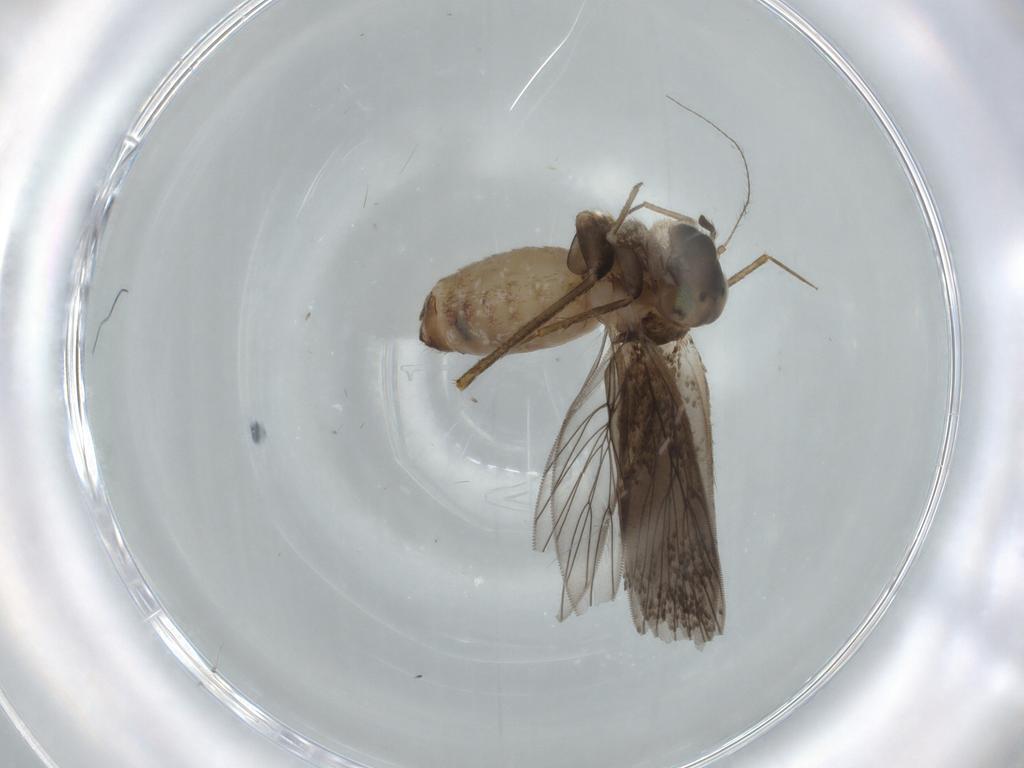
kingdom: Animalia
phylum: Arthropoda
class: Insecta
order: Psocodea
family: Lepidopsocidae
